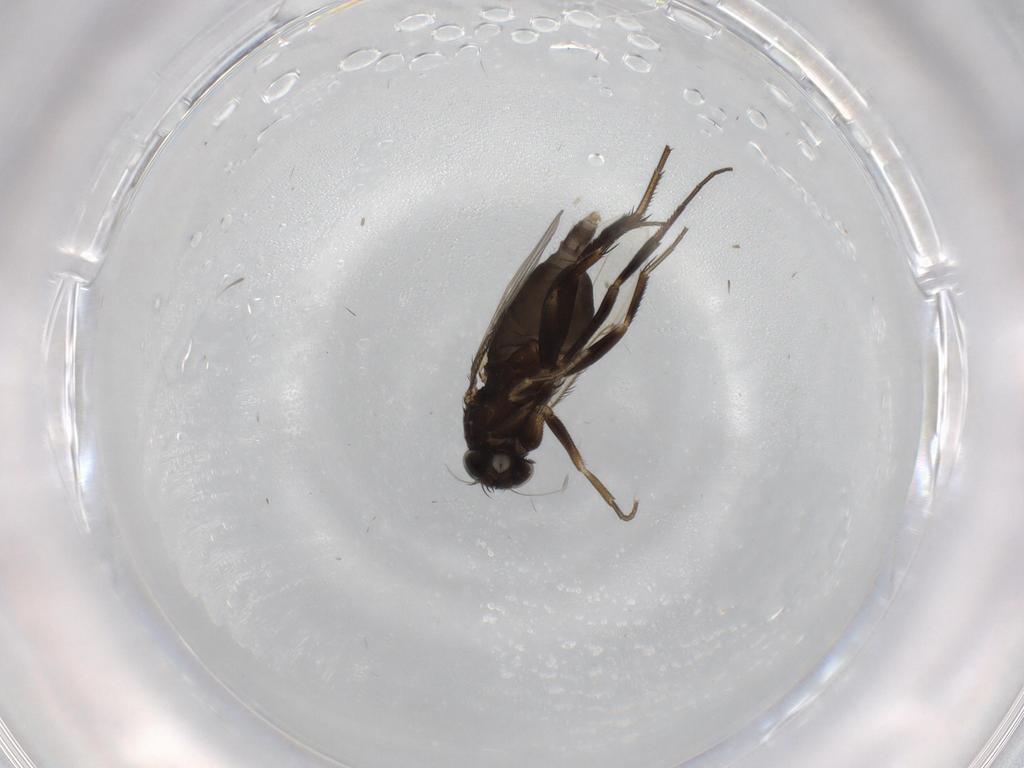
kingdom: Animalia
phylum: Arthropoda
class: Insecta
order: Diptera
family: Phoridae
